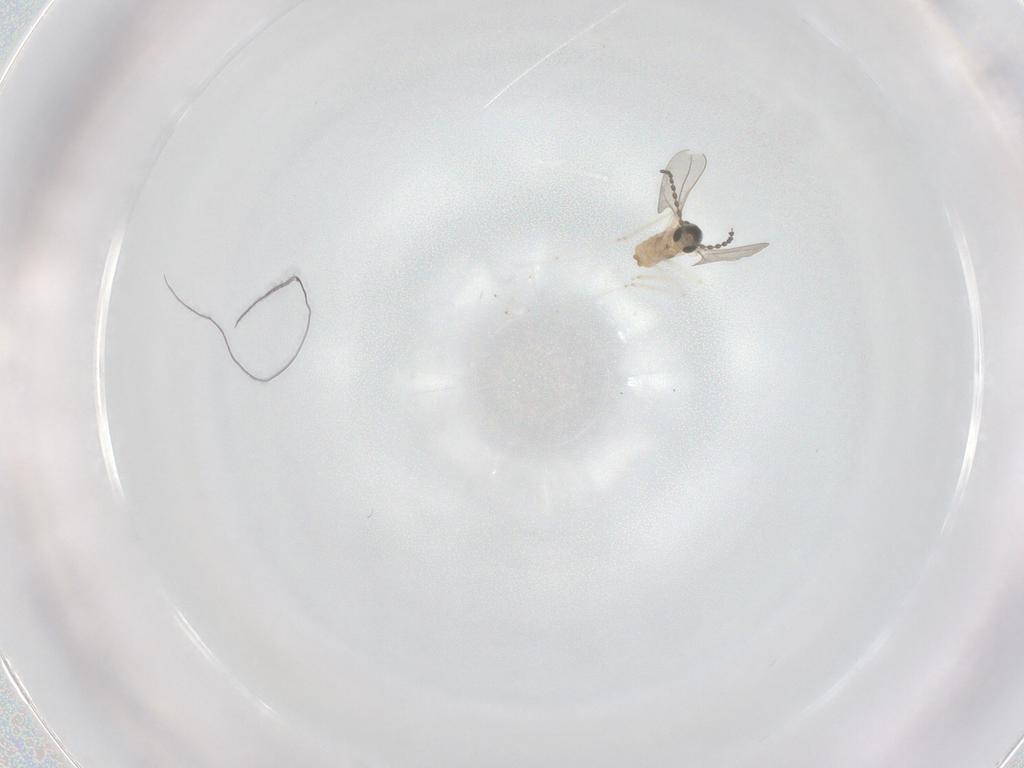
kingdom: Animalia
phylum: Arthropoda
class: Insecta
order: Diptera
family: Cecidomyiidae
